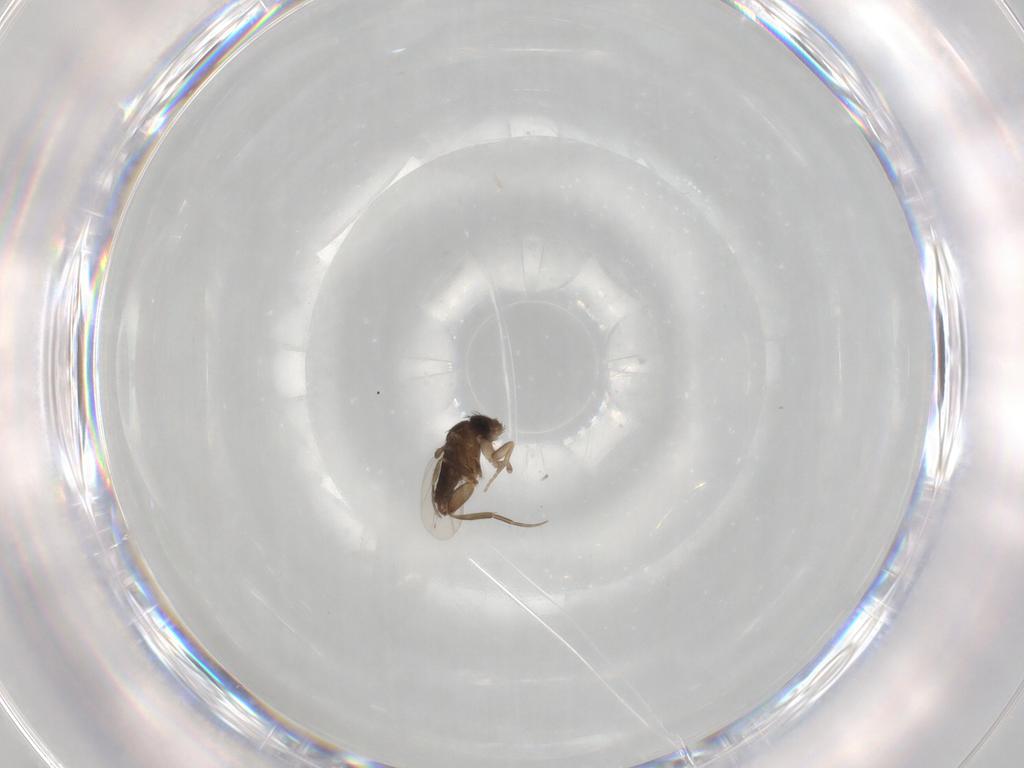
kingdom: Animalia
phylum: Arthropoda
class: Insecta
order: Diptera
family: Phoridae
